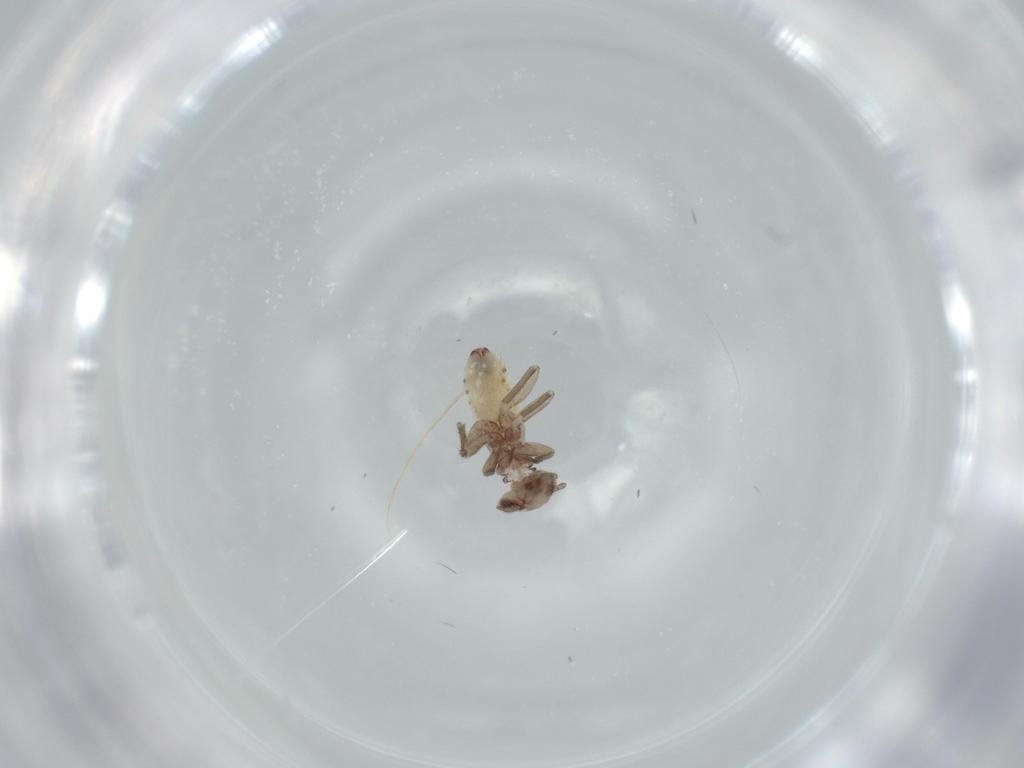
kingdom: Animalia
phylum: Arthropoda
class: Insecta
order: Psocodea
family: Lepidopsocidae
